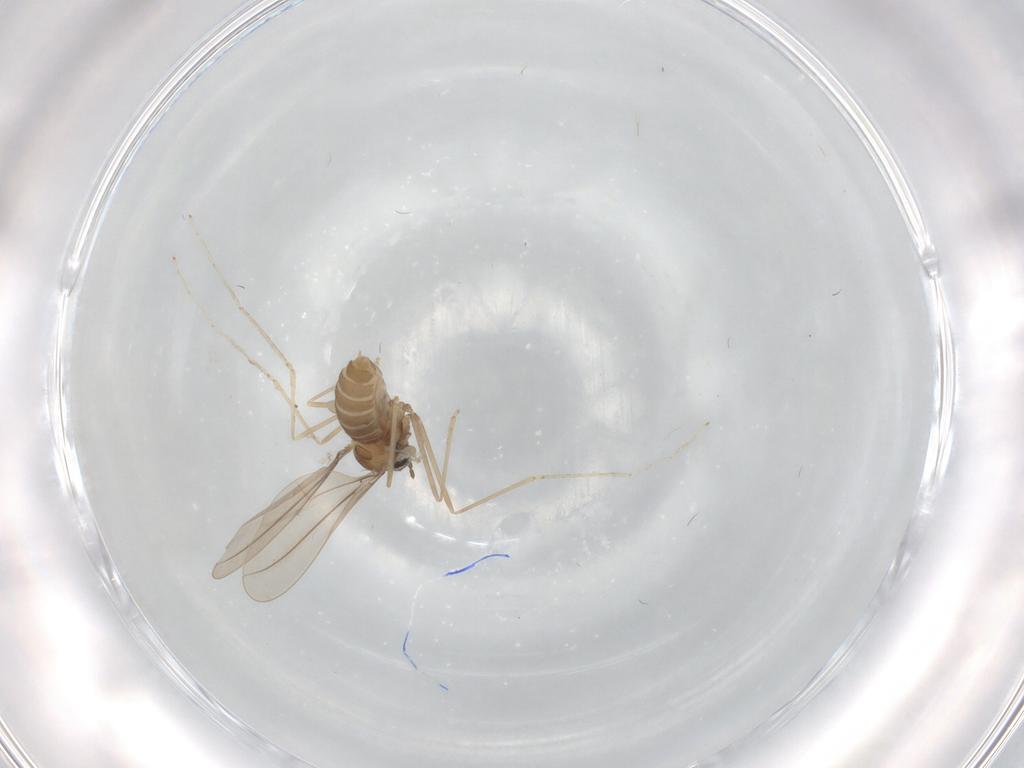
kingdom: Animalia
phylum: Arthropoda
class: Insecta
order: Diptera
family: Cecidomyiidae
